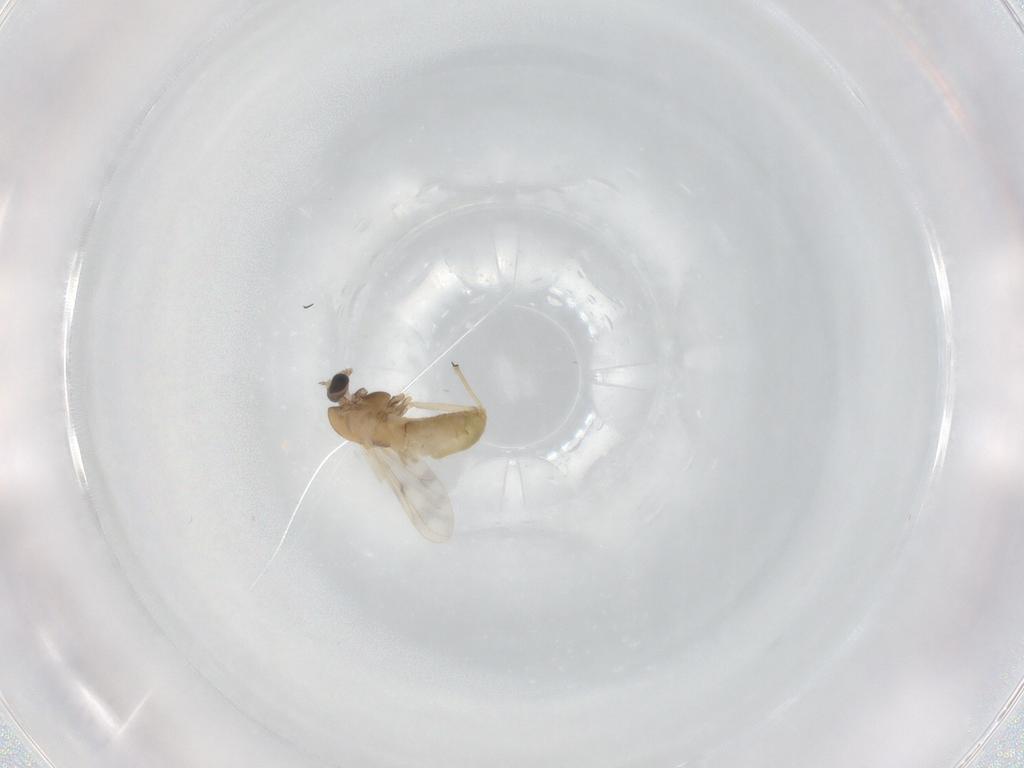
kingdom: Animalia
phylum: Arthropoda
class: Insecta
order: Diptera
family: Chironomidae
